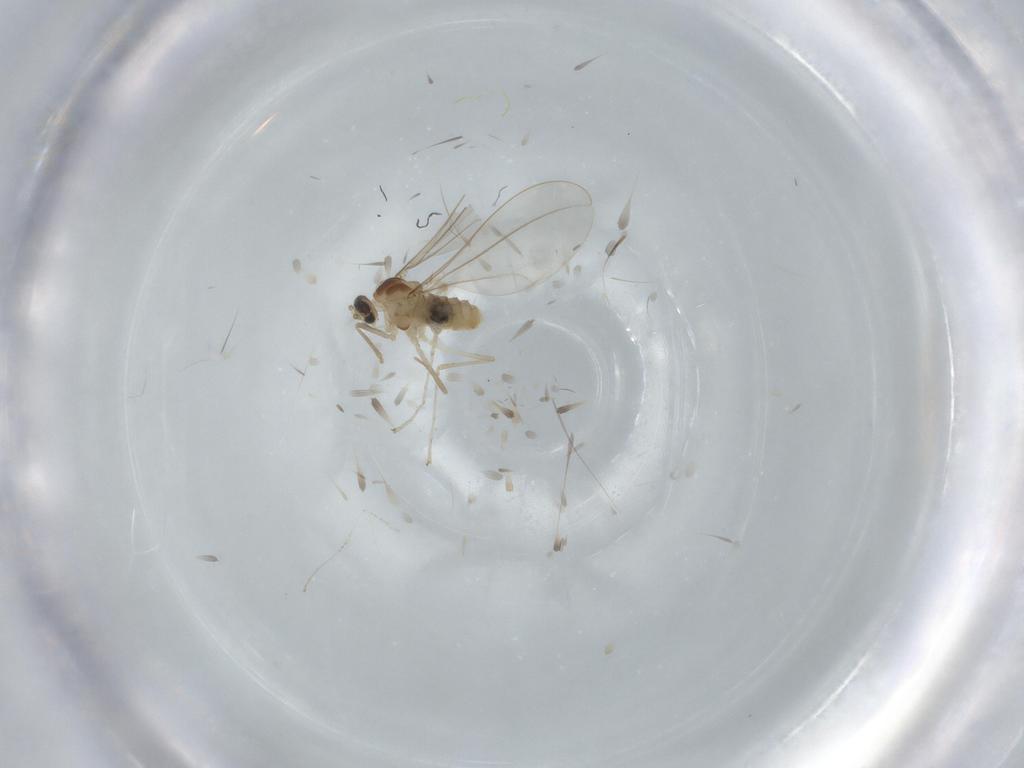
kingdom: Animalia
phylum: Arthropoda
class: Insecta
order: Diptera
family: Cecidomyiidae
